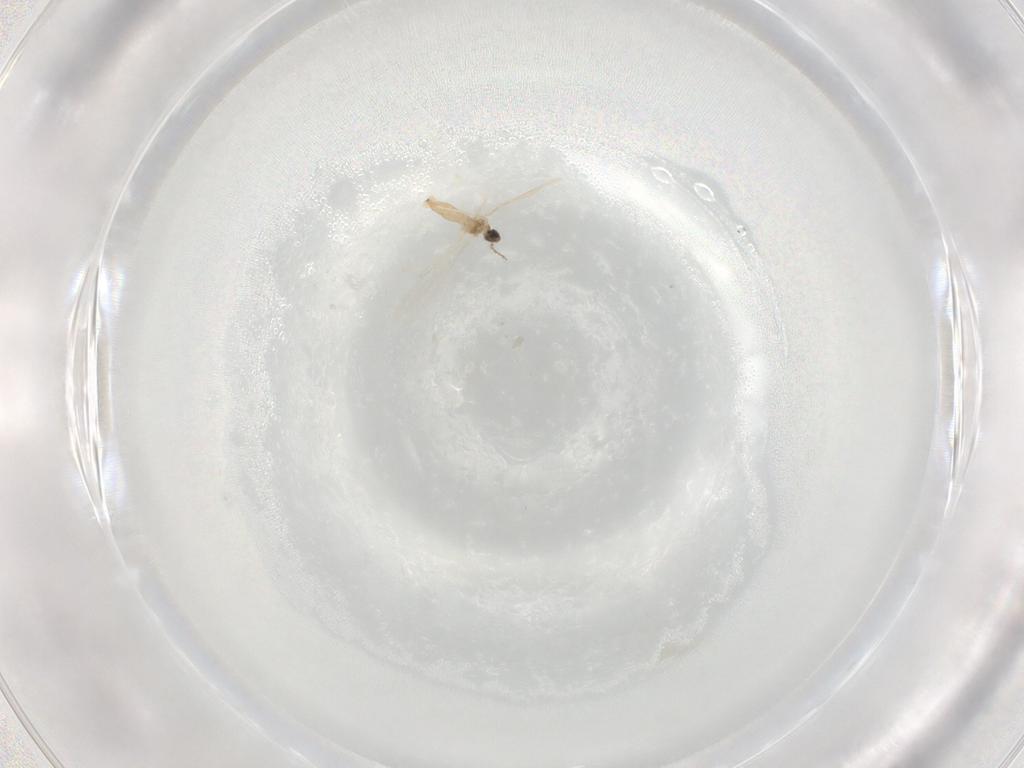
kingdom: Animalia
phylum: Arthropoda
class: Insecta
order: Diptera
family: Cecidomyiidae
